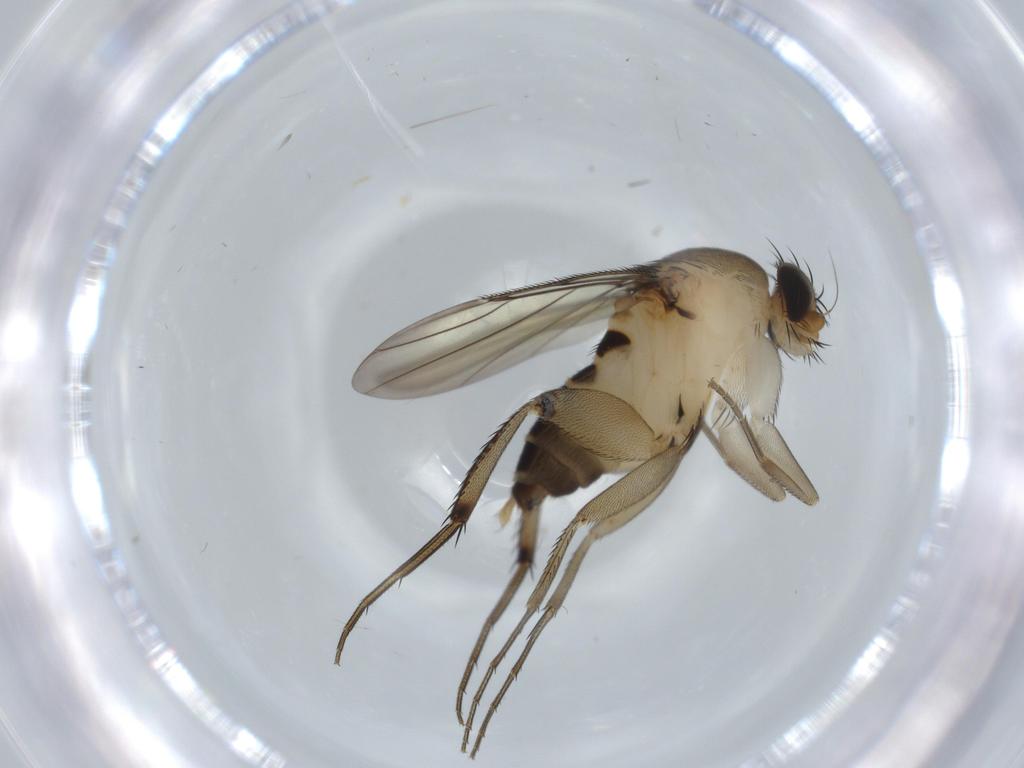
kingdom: Animalia
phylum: Arthropoda
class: Insecta
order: Diptera
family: Phoridae
